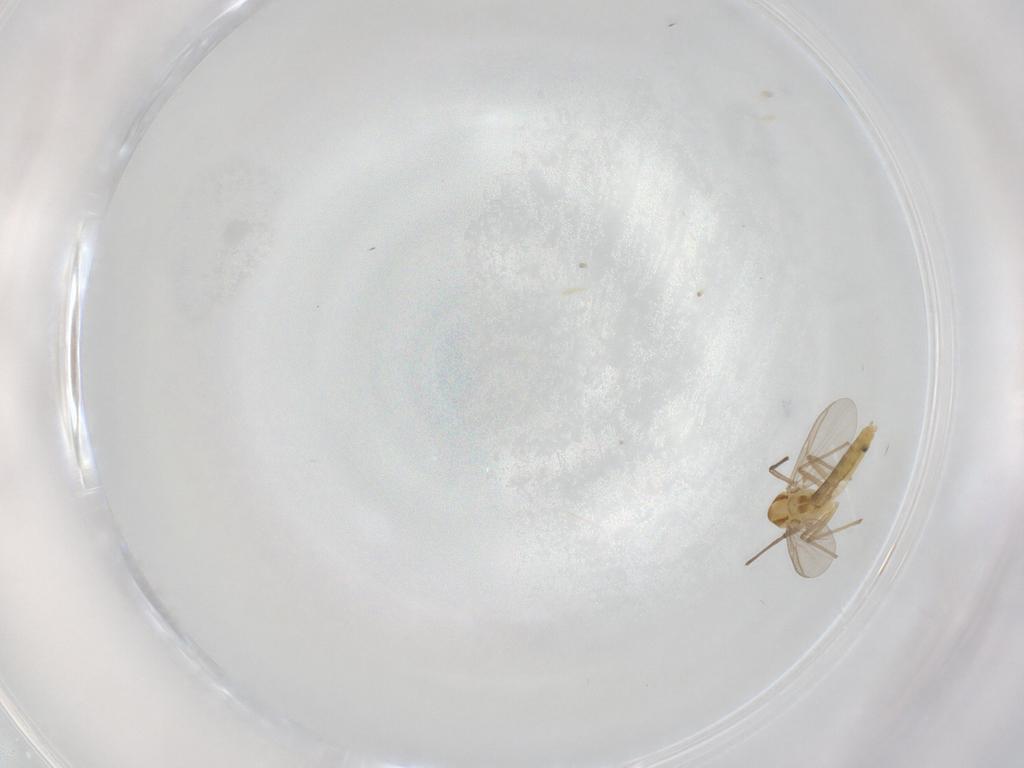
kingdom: Animalia
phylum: Arthropoda
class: Insecta
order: Diptera
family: Chironomidae
